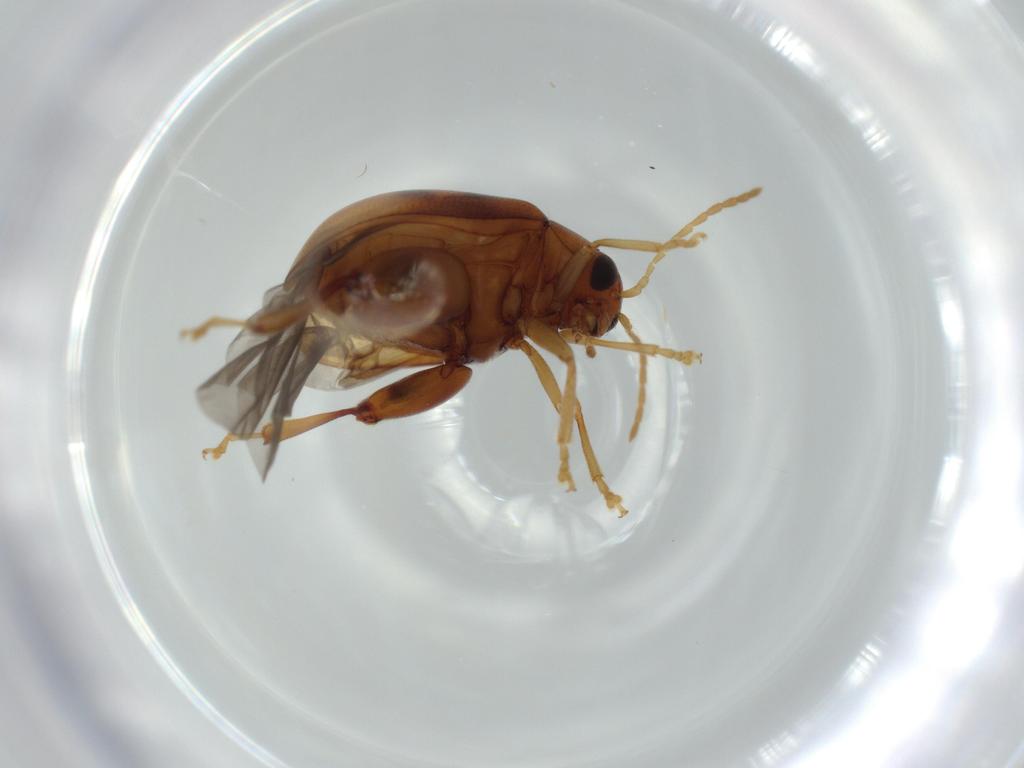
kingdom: Animalia
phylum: Arthropoda
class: Insecta
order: Coleoptera
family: Chrysomelidae
